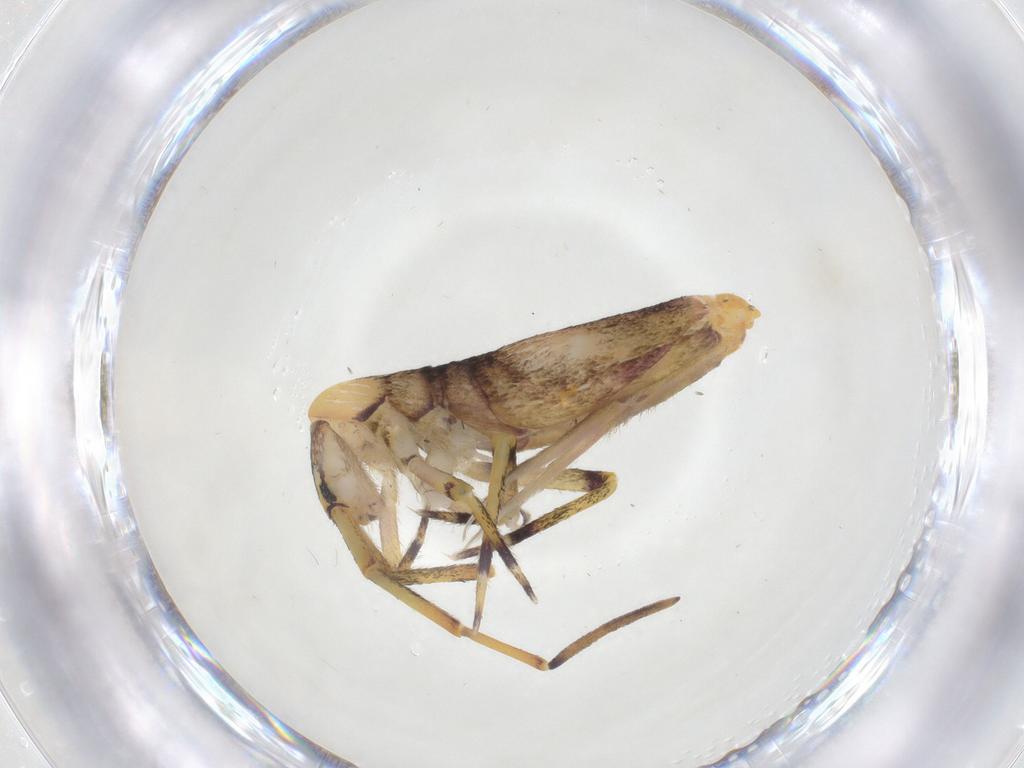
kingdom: Animalia
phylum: Arthropoda
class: Collembola
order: Entomobryomorpha
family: Entomobryidae
